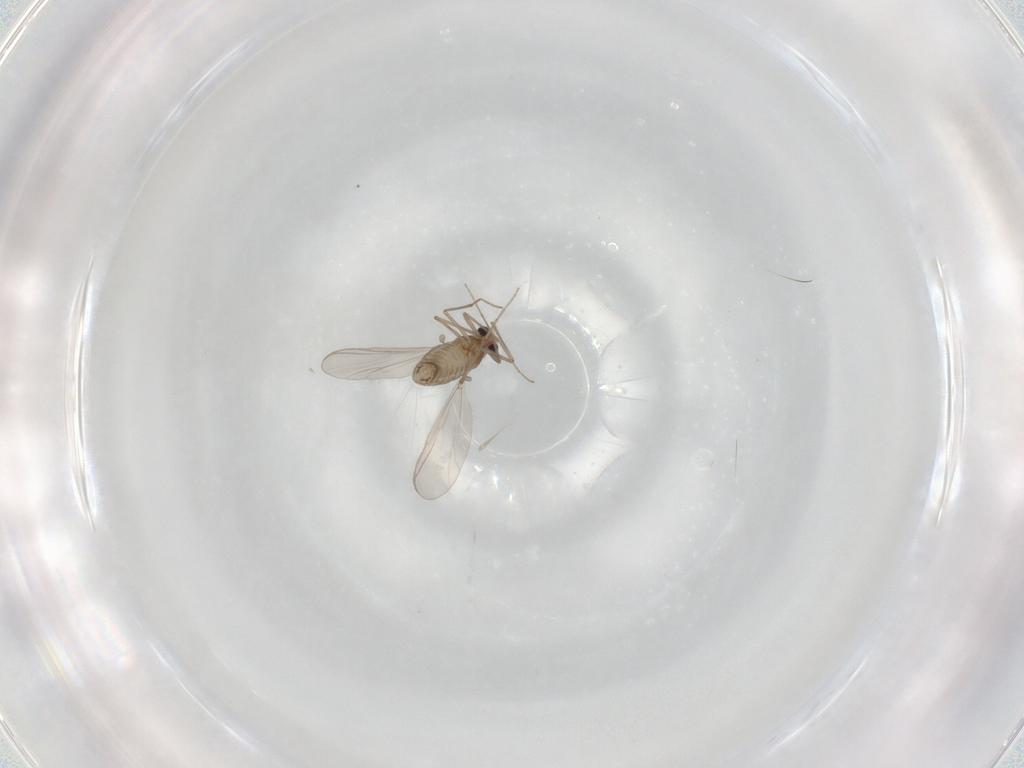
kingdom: Animalia
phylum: Arthropoda
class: Insecta
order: Diptera
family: Chironomidae
